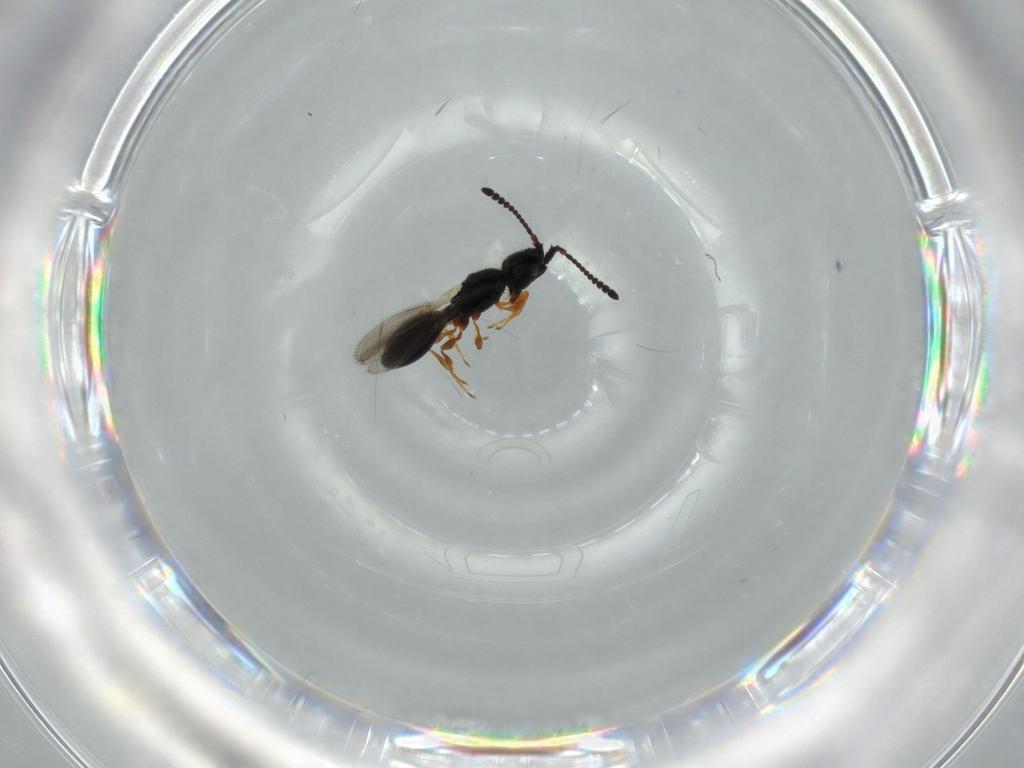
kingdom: Animalia
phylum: Arthropoda
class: Insecta
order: Hymenoptera
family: Diapriidae
